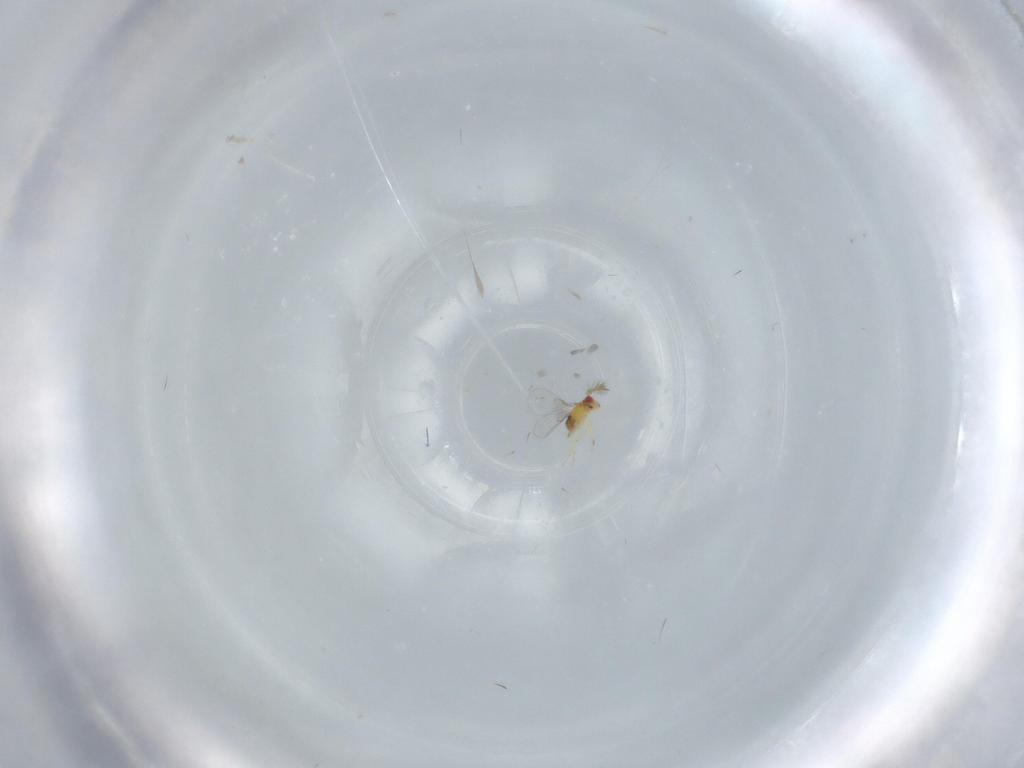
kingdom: Animalia
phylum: Arthropoda
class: Insecta
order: Hymenoptera
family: Trichogrammatidae
